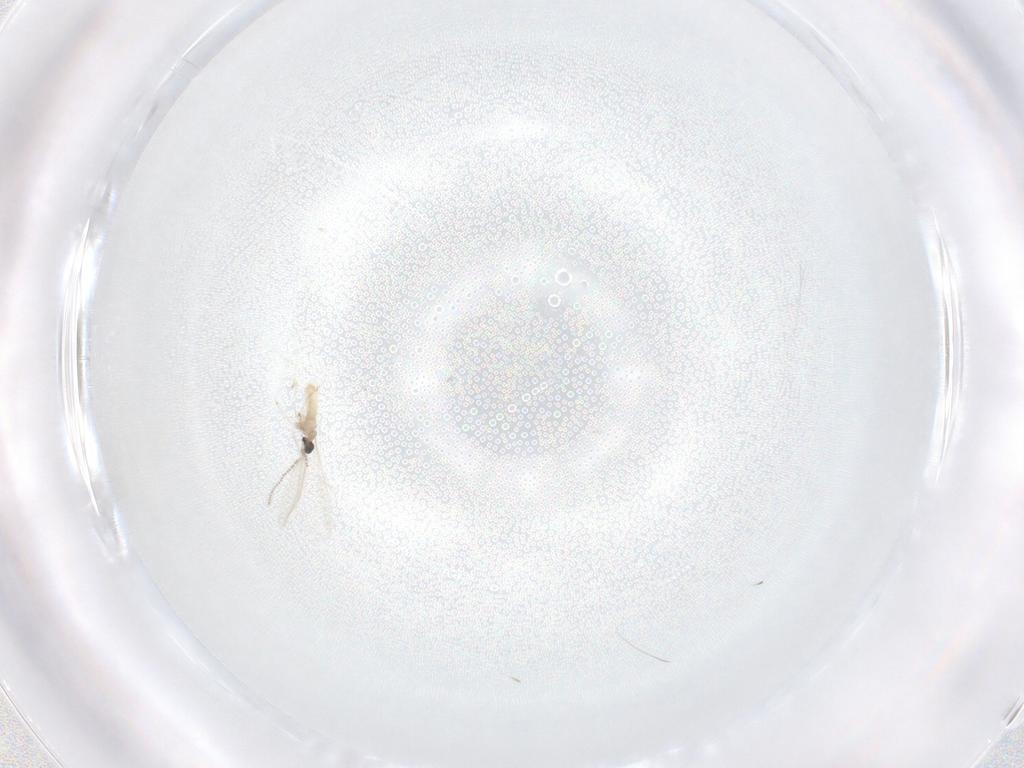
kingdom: Animalia
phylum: Arthropoda
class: Insecta
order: Diptera
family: Cecidomyiidae
